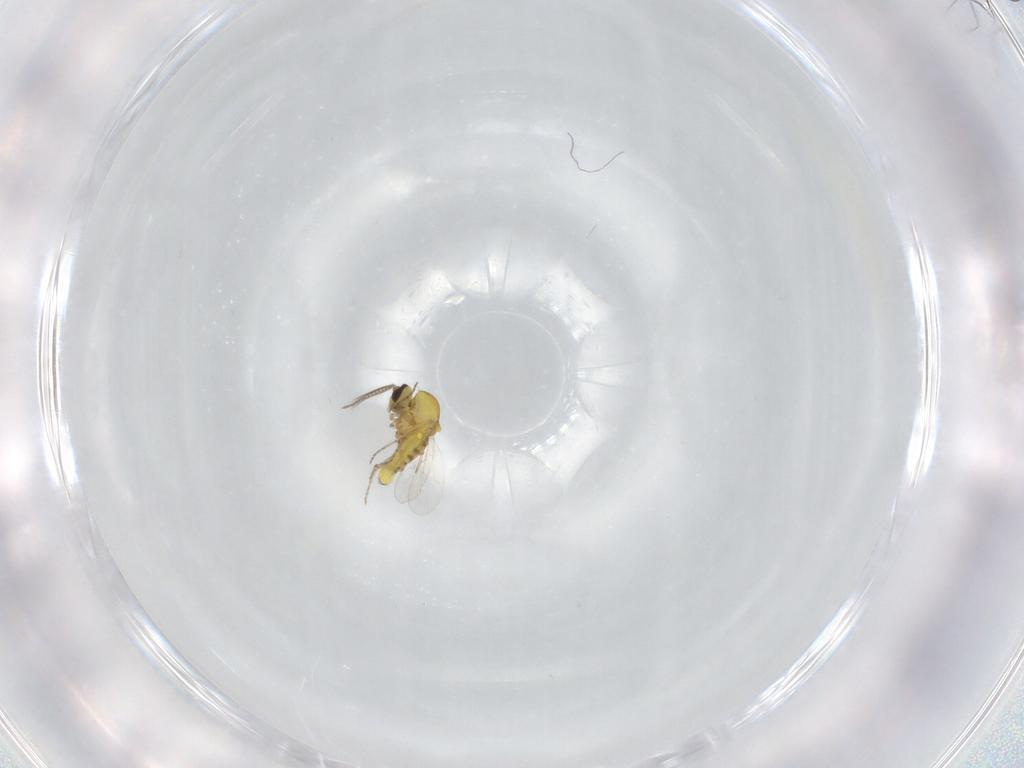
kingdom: Animalia
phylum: Arthropoda
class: Insecta
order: Diptera
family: Ceratopogonidae
